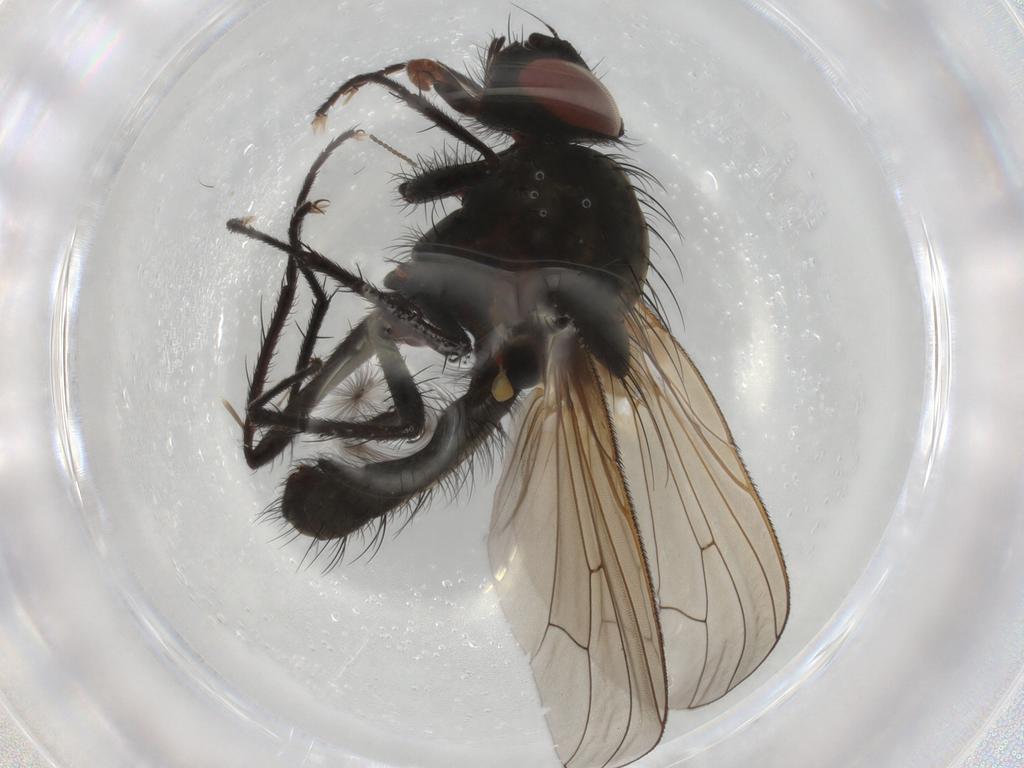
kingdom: Animalia
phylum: Arthropoda
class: Insecta
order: Diptera
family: Anthomyiidae
